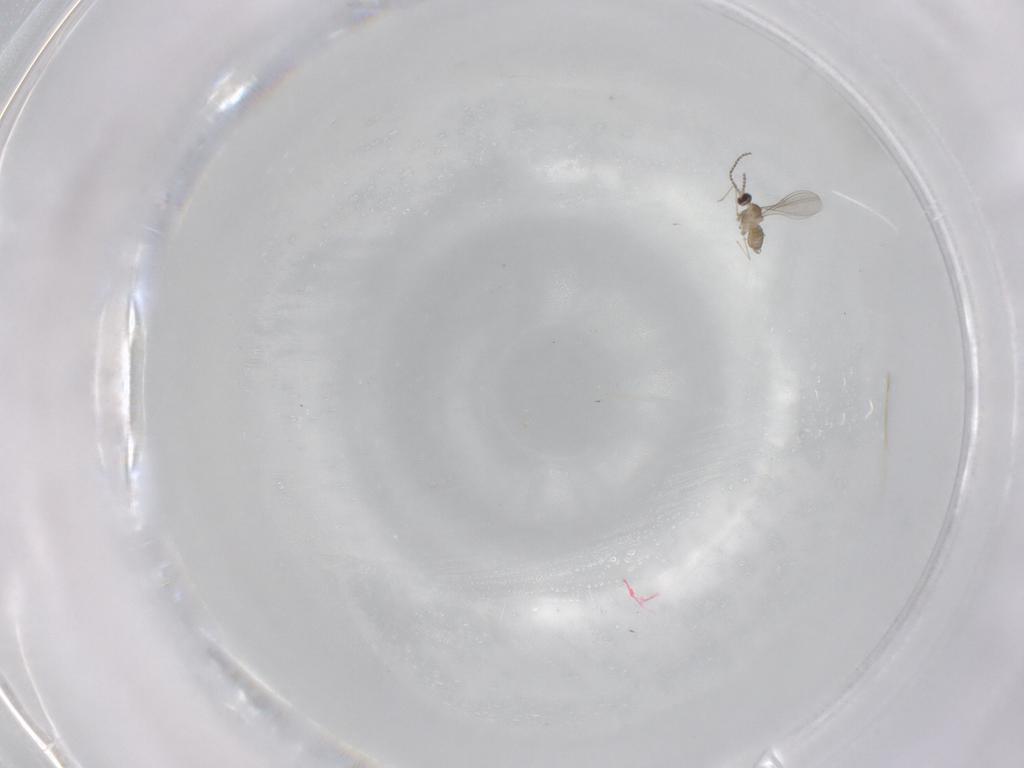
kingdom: Animalia
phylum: Arthropoda
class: Insecta
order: Diptera
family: Cecidomyiidae
